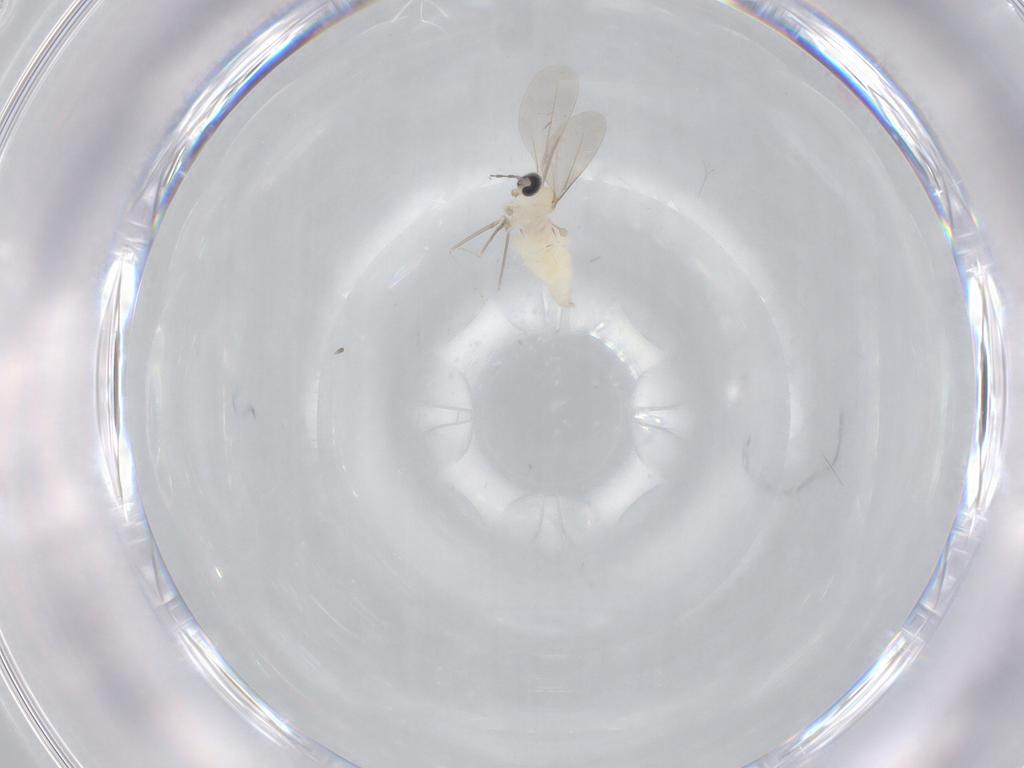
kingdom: Animalia
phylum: Arthropoda
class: Insecta
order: Diptera
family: Cecidomyiidae
